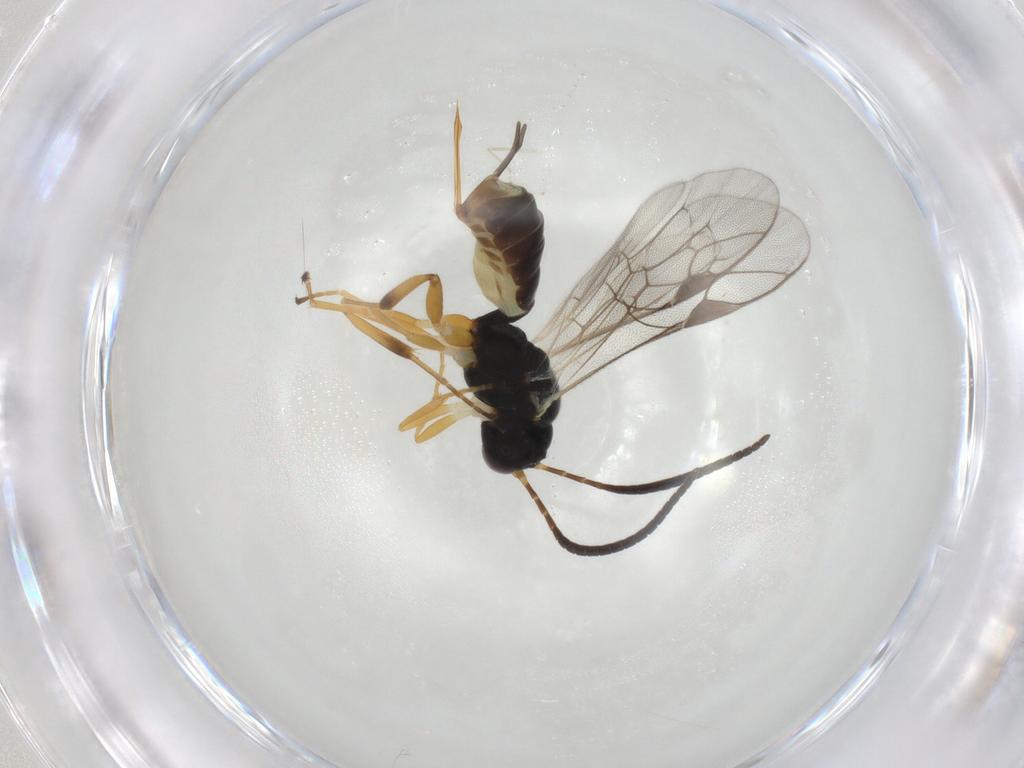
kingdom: Animalia
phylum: Arthropoda
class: Insecta
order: Hymenoptera
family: Ichneumonidae
